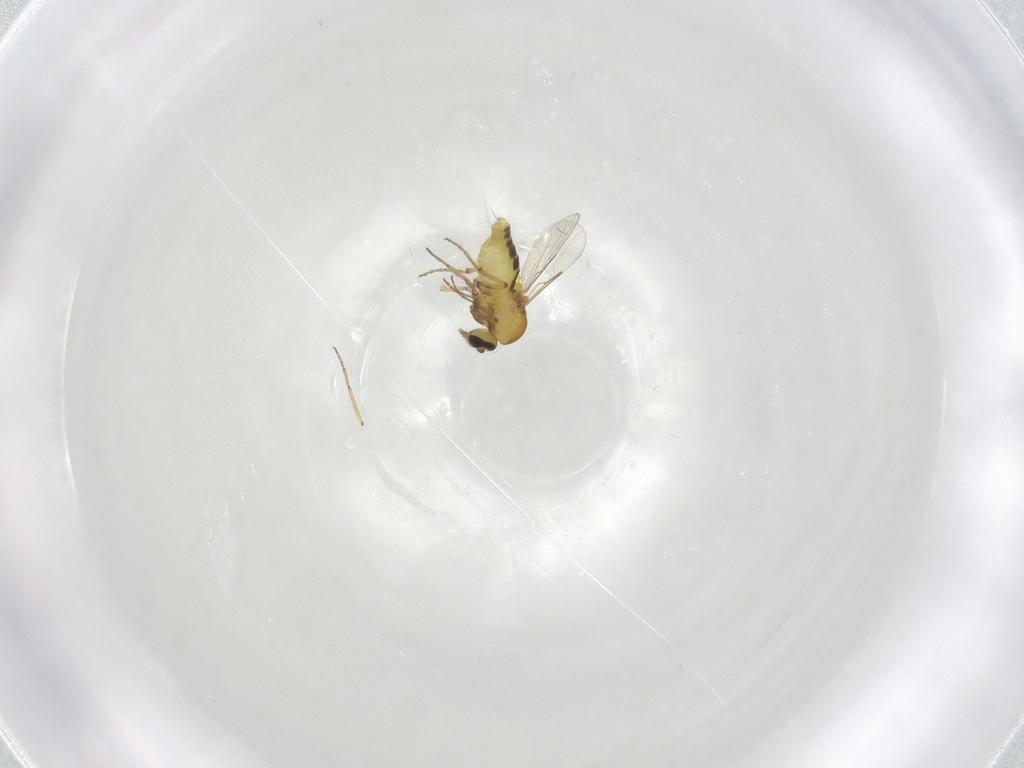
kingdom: Animalia
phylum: Arthropoda
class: Insecta
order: Diptera
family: Ceratopogonidae
